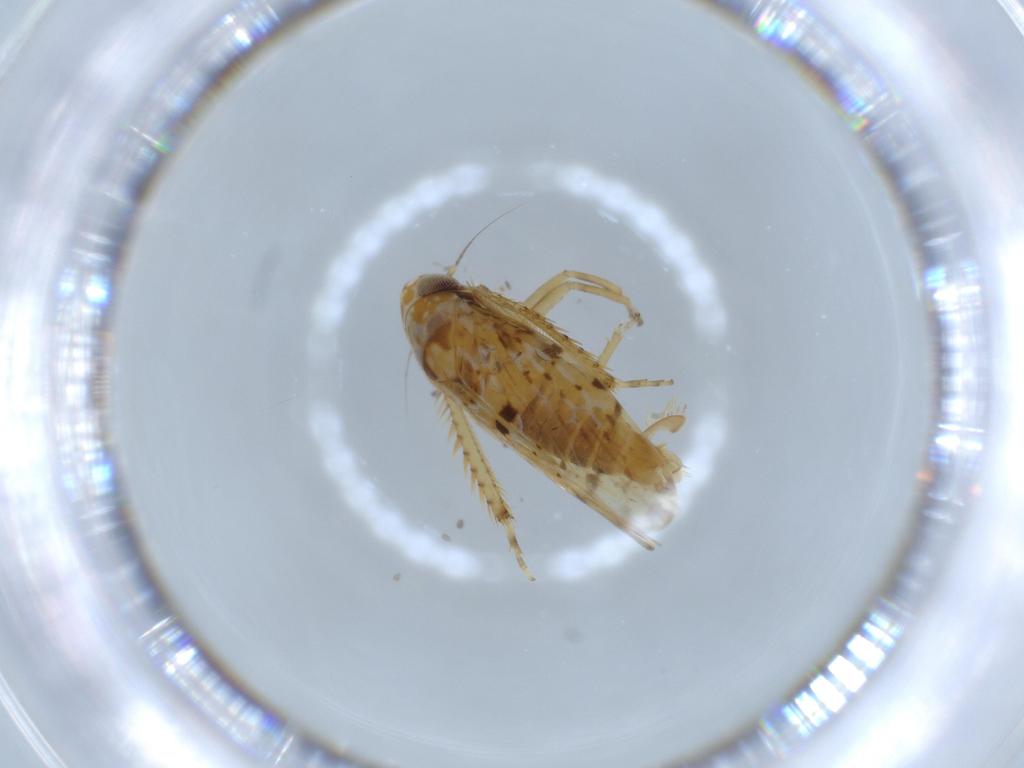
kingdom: Animalia
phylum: Arthropoda
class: Insecta
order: Hemiptera
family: Cicadellidae
